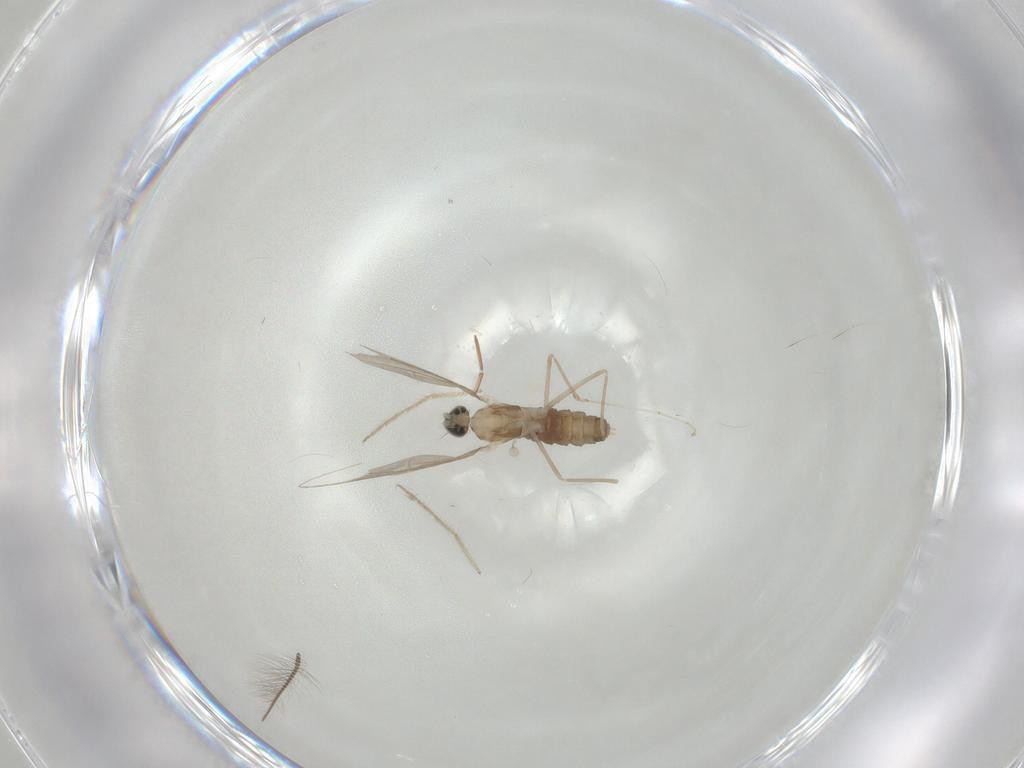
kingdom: Animalia
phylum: Arthropoda
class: Insecta
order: Diptera
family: Cecidomyiidae
